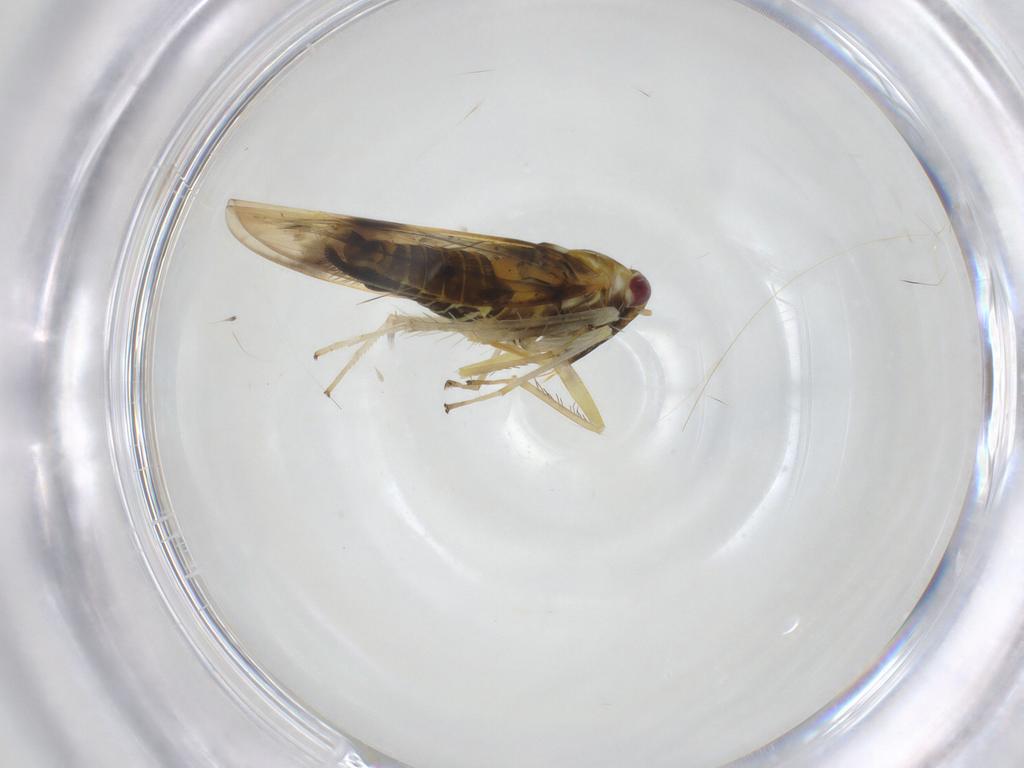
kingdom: Animalia
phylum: Arthropoda
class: Insecta
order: Hemiptera
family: Cicadellidae
